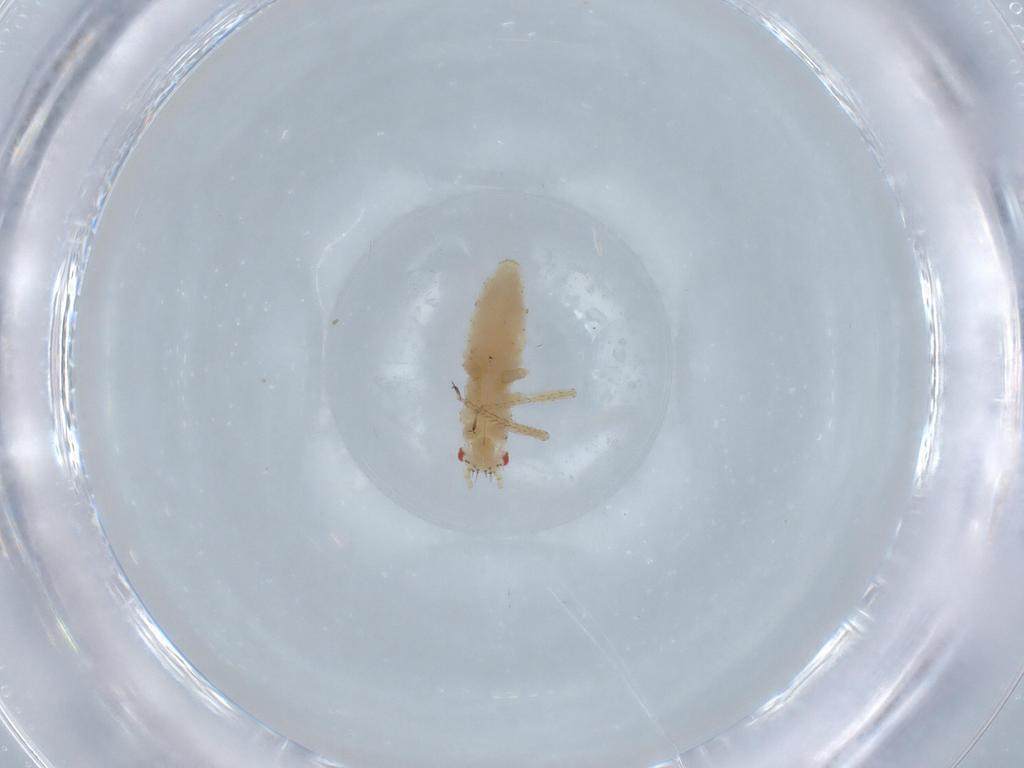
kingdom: Animalia
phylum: Arthropoda
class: Insecta
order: Hemiptera
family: Aphididae
